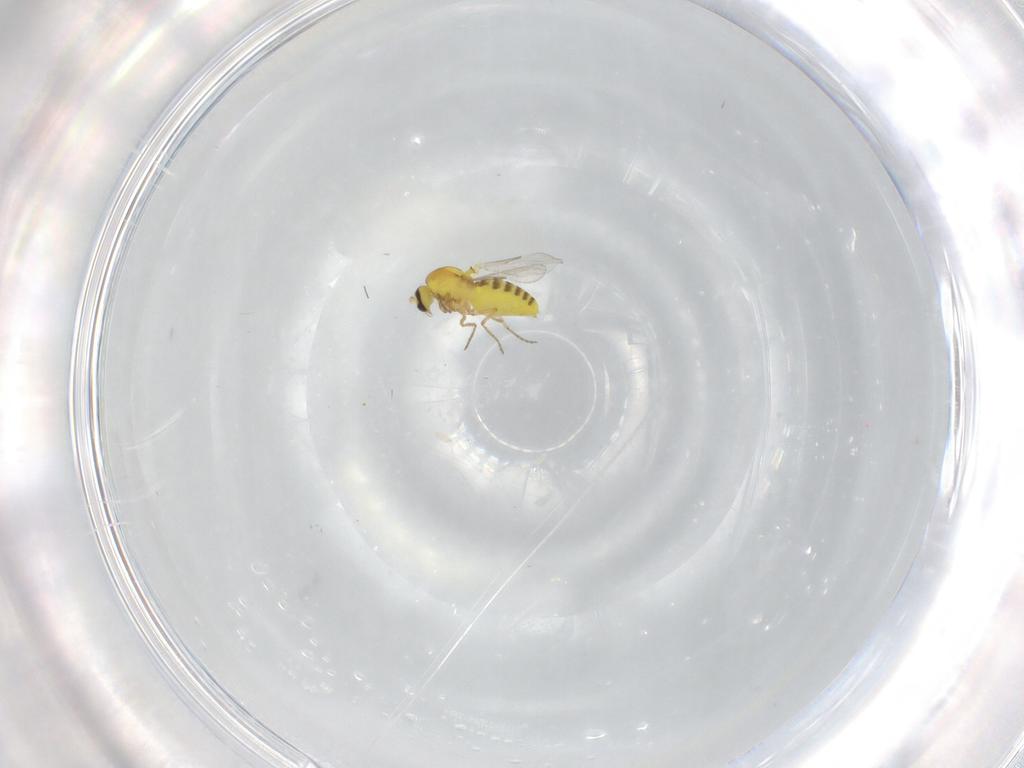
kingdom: Animalia
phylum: Arthropoda
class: Insecta
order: Diptera
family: Ceratopogonidae
